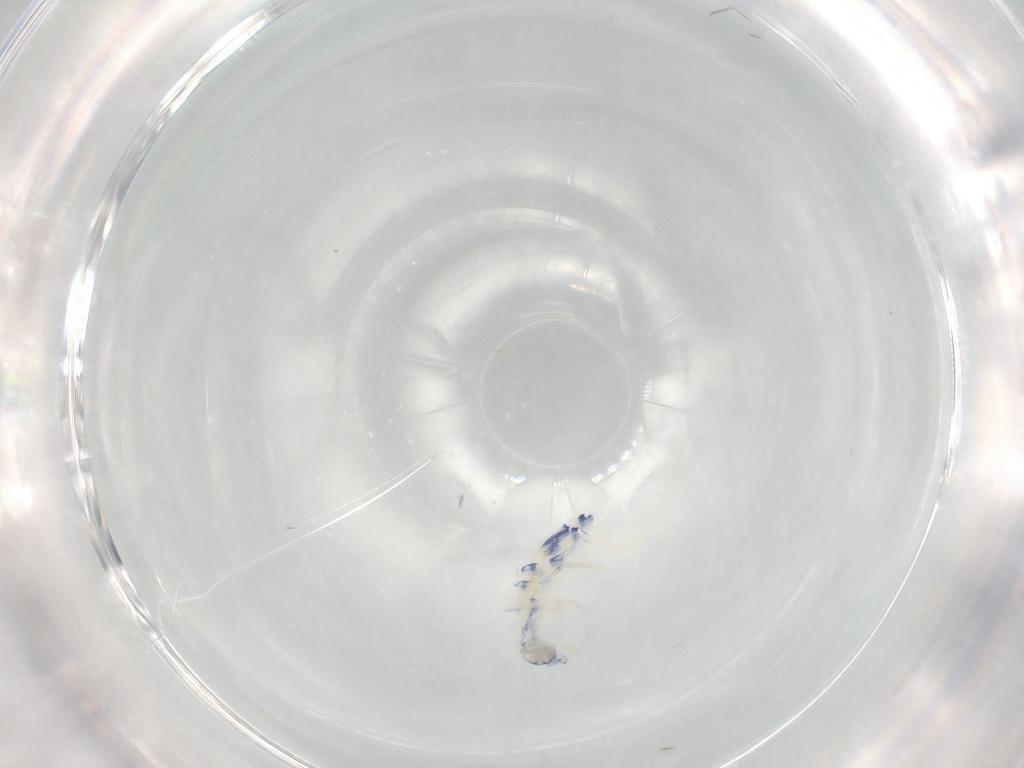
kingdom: Animalia
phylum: Arthropoda
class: Collembola
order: Entomobryomorpha
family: Entomobryidae
